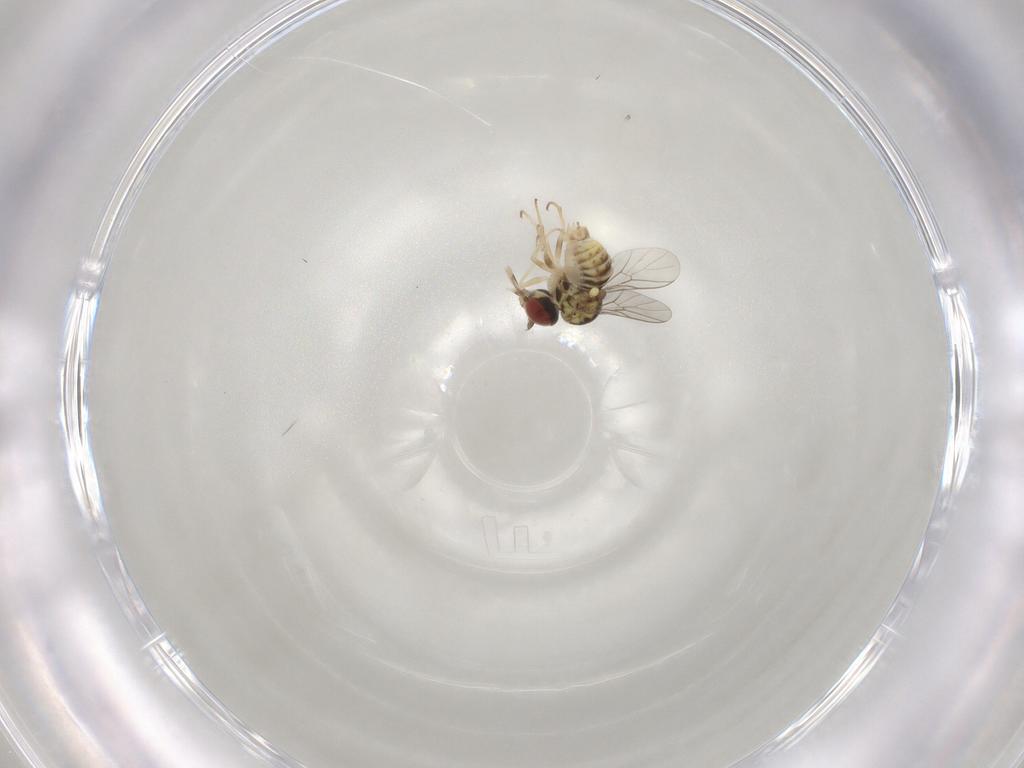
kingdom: Animalia
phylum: Arthropoda
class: Insecta
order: Diptera
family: Bombyliidae
